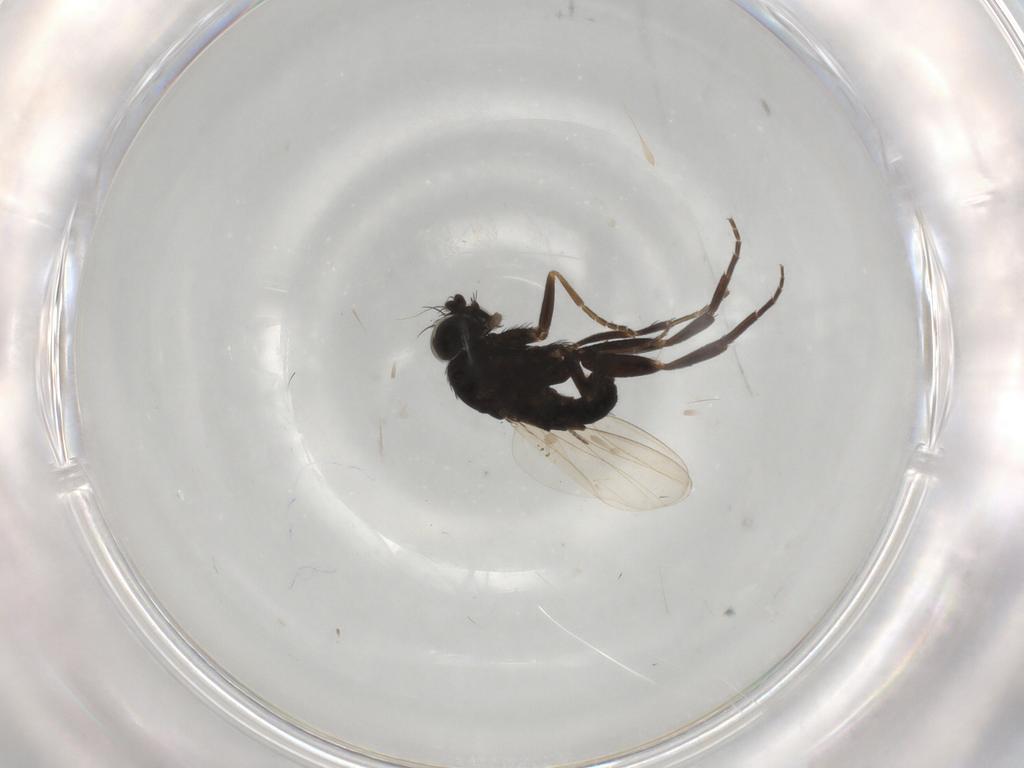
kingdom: Animalia
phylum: Arthropoda
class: Insecta
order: Diptera
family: Phoridae
